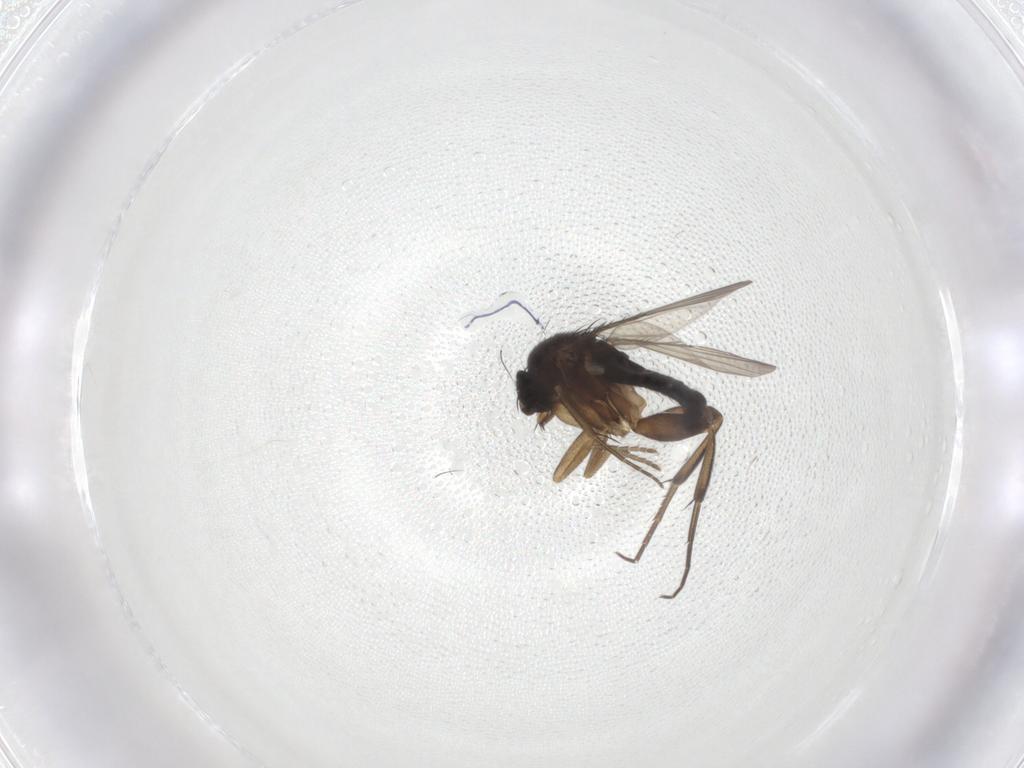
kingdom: Animalia
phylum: Arthropoda
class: Insecta
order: Diptera
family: Phoridae
